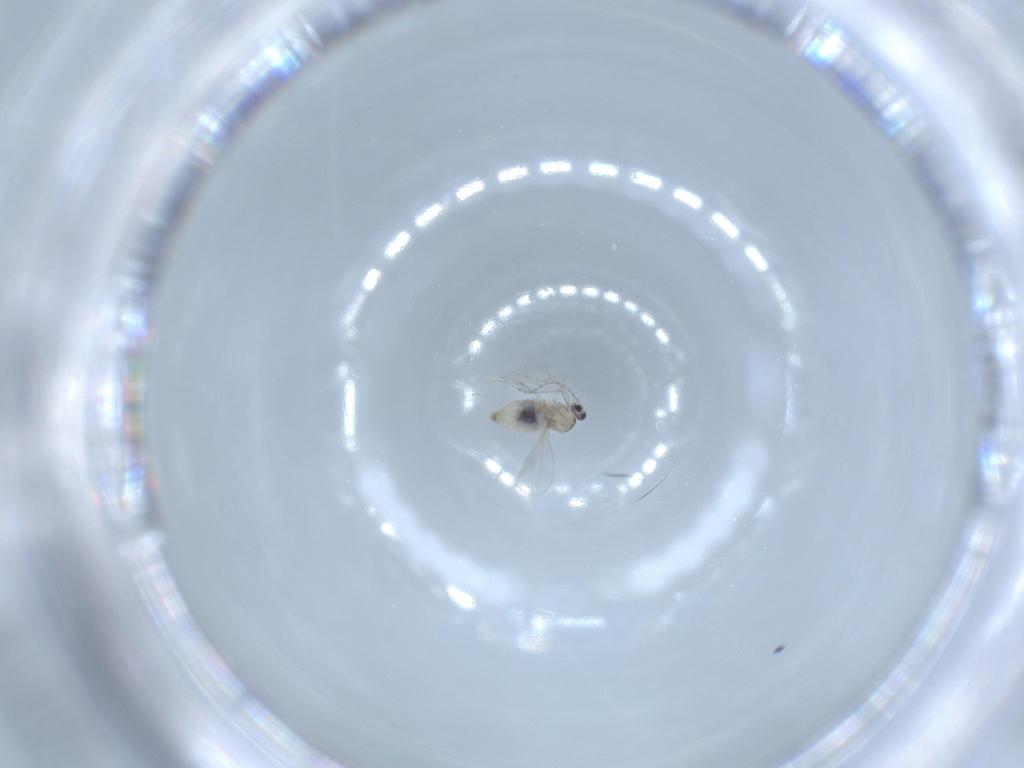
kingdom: Animalia
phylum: Arthropoda
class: Insecta
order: Diptera
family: Cecidomyiidae
